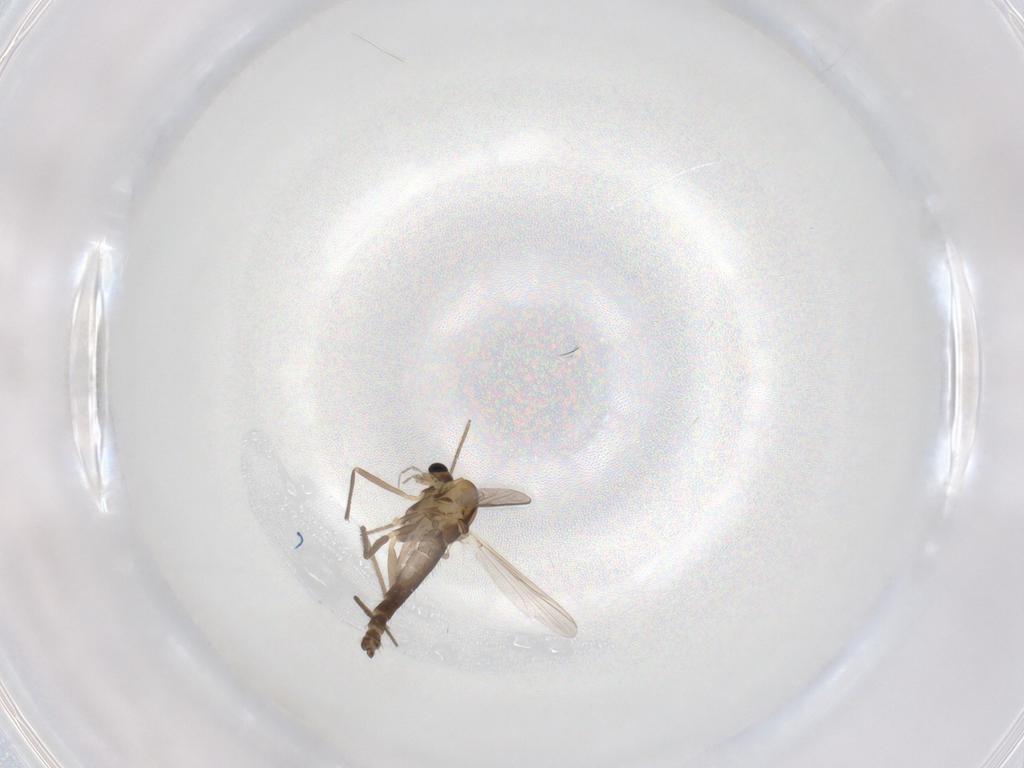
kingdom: Animalia
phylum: Arthropoda
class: Insecta
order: Diptera
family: Chironomidae
